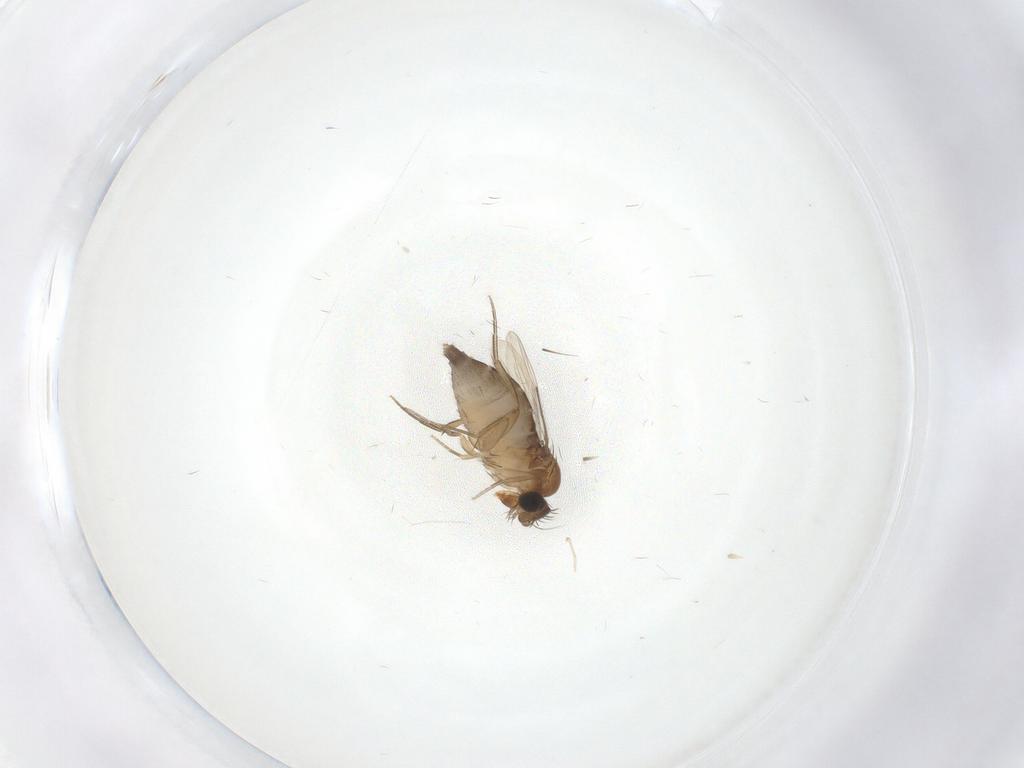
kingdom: Animalia
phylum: Arthropoda
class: Insecta
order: Diptera
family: Phoridae
